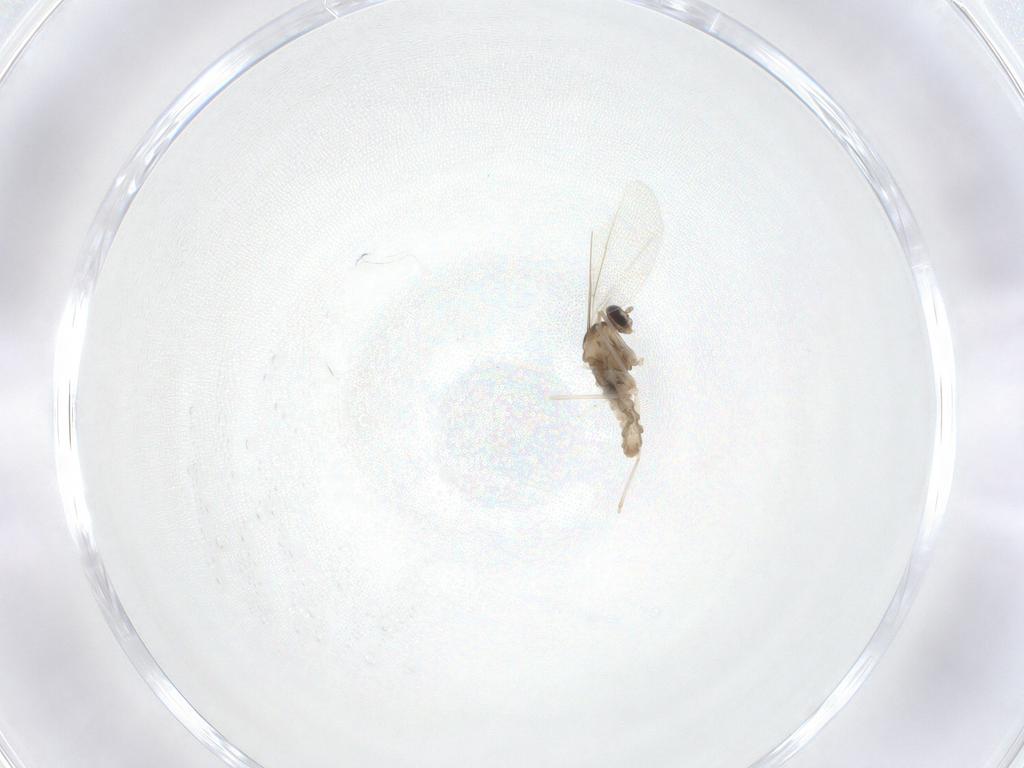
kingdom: Animalia
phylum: Arthropoda
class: Insecta
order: Diptera
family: Cecidomyiidae
